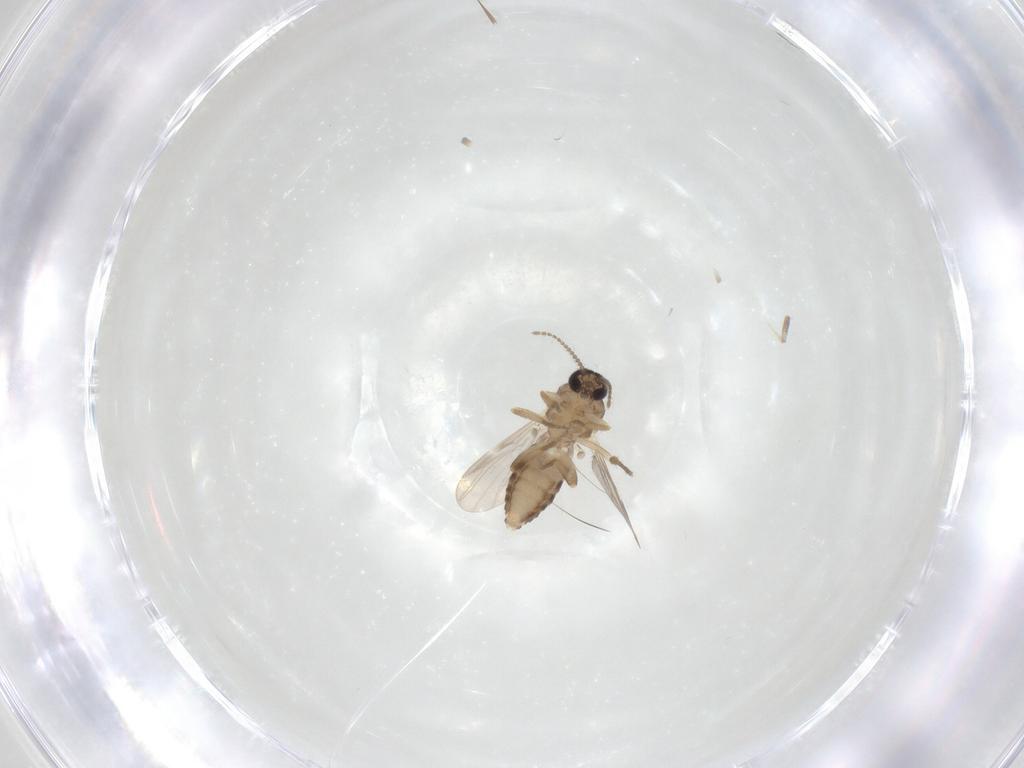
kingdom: Animalia
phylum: Arthropoda
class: Insecta
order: Diptera
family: Ceratopogonidae
